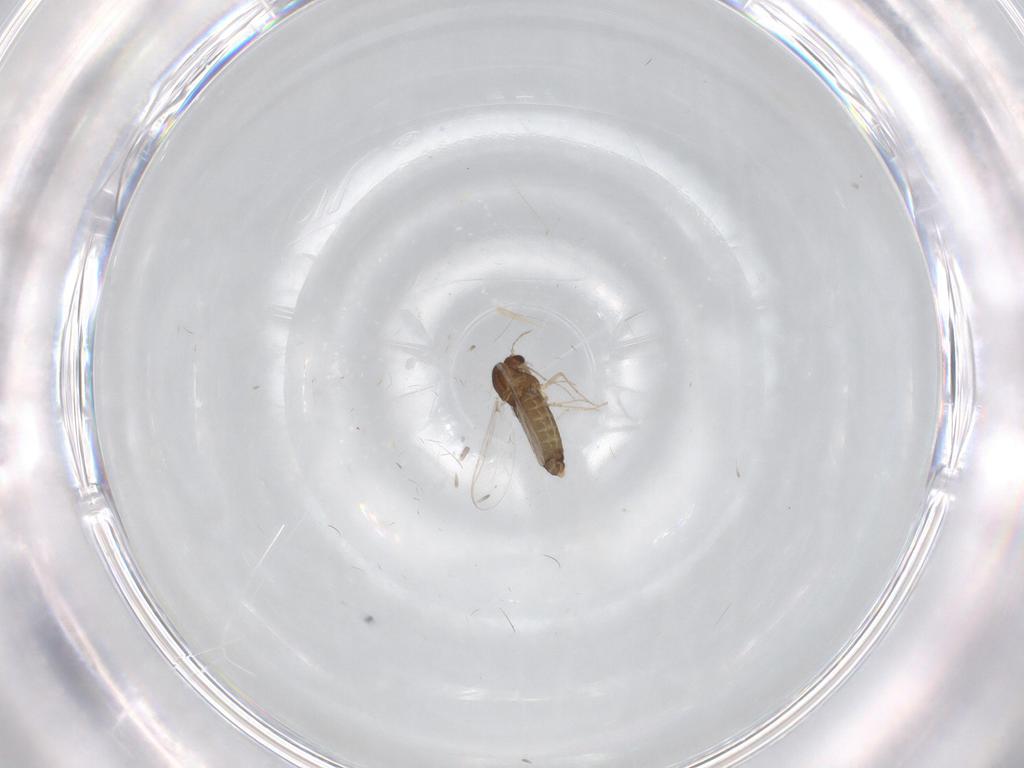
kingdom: Animalia
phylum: Arthropoda
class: Insecta
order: Diptera
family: Chironomidae
